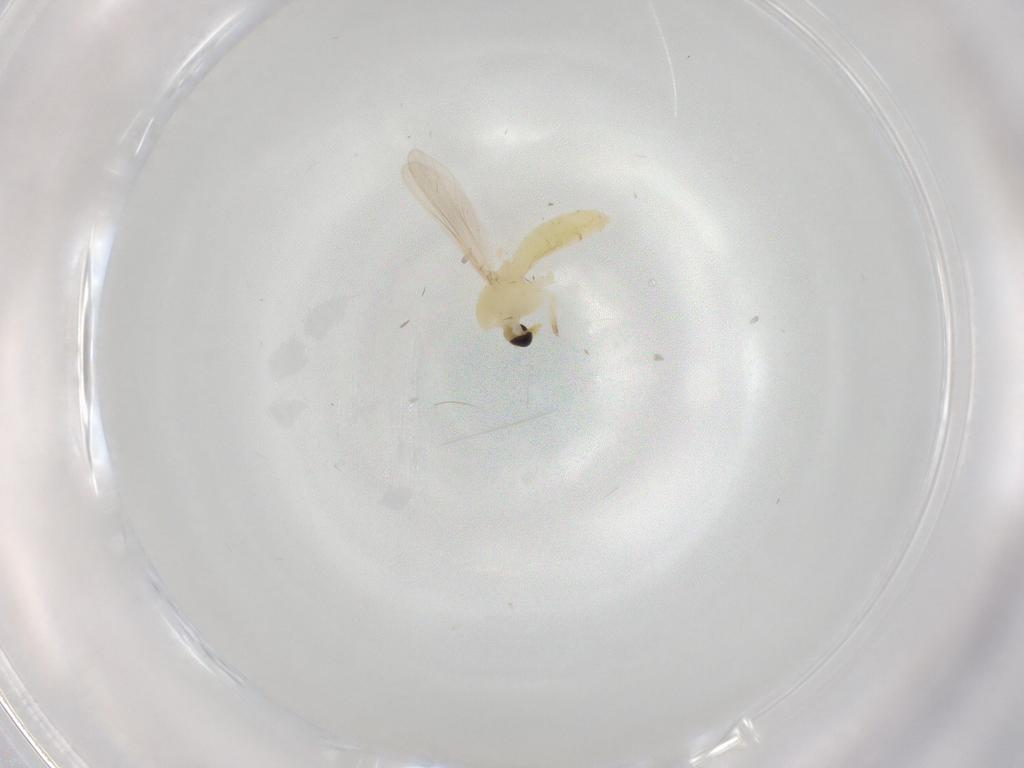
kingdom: Animalia
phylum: Arthropoda
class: Insecta
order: Diptera
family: Chironomidae
